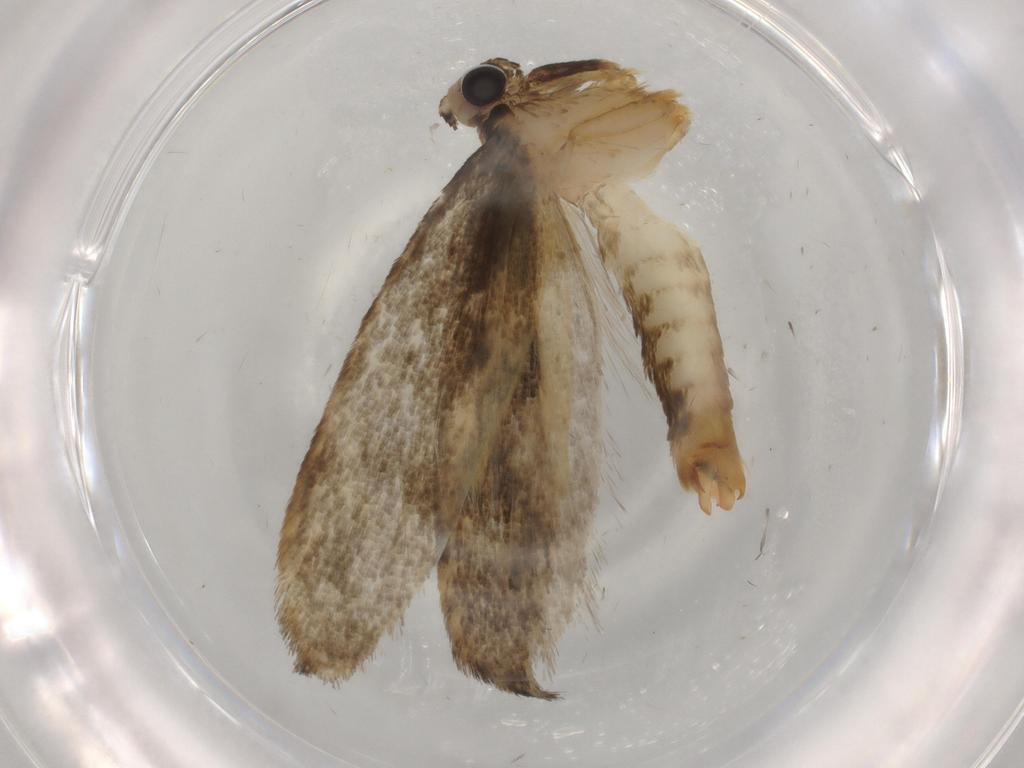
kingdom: Animalia
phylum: Arthropoda
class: Insecta
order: Lepidoptera
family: Tineidae
